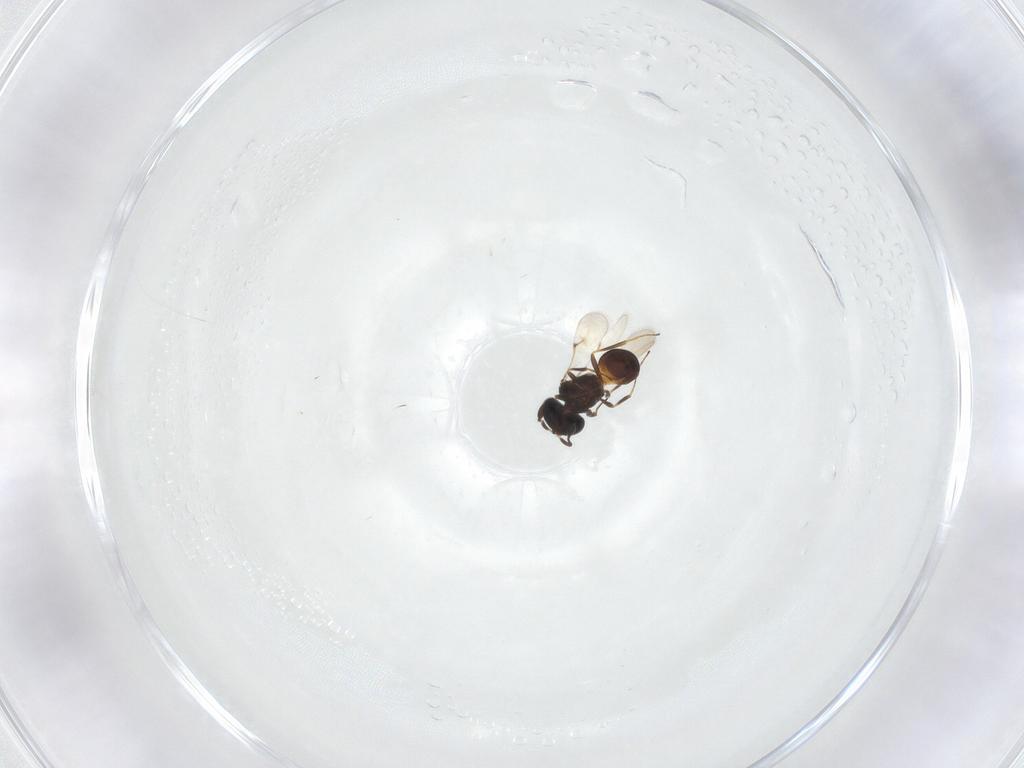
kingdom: Animalia
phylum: Arthropoda
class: Insecta
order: Hymenoptera
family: Scelionidae
